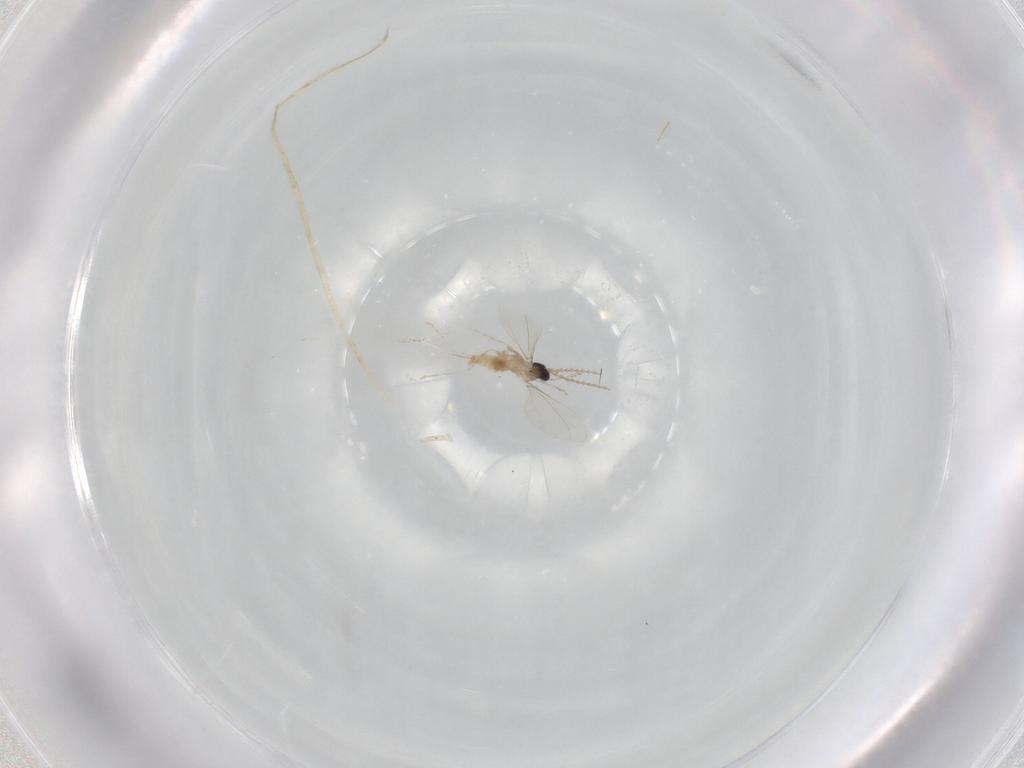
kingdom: Animalia
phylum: Arthropoda
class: Insecta
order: Diptera
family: Cecidomyiidae
